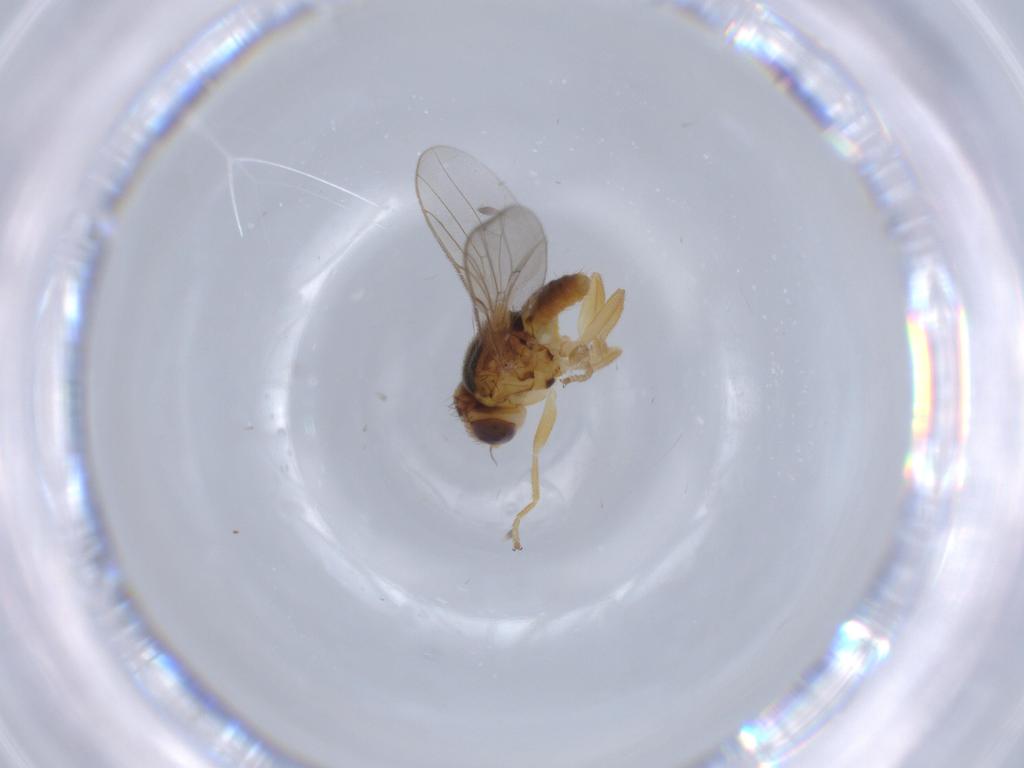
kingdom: Animalia
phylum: Arthropoda
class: Insecta
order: Diptera
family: Chloropidae
